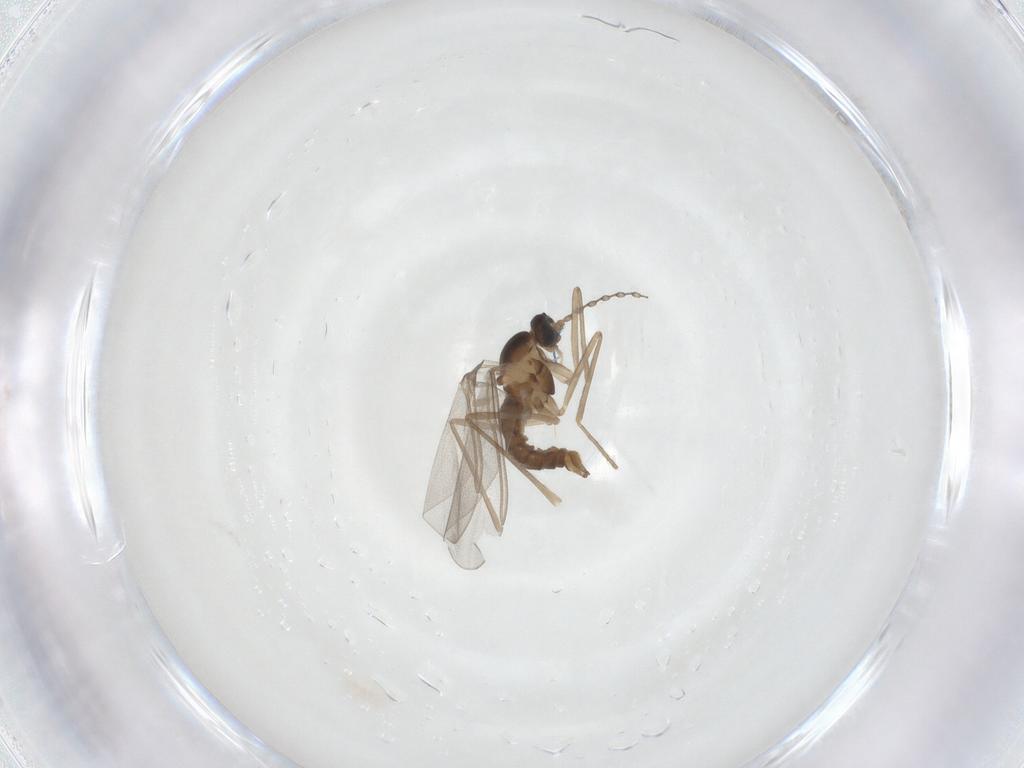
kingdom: Animalia
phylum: Arthropoda
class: Insecta
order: Diptera
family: Cecidomyiidae
